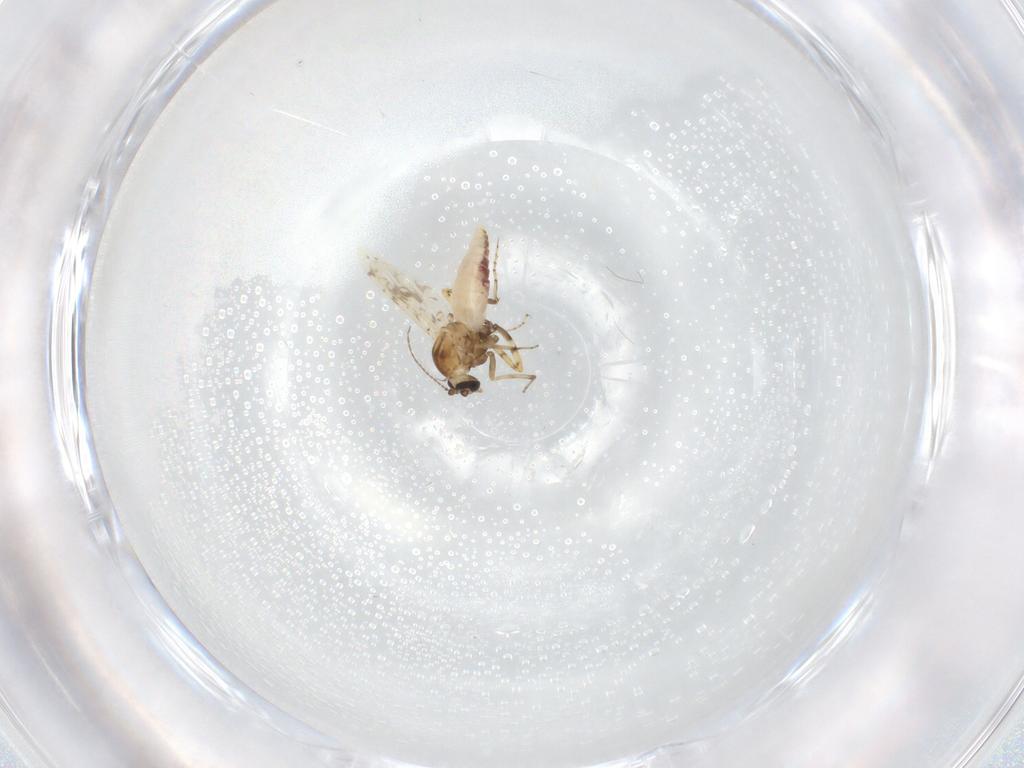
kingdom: Animalia
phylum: Arthropoda
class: Insecta
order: Diptera
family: Ceratopogonidae
